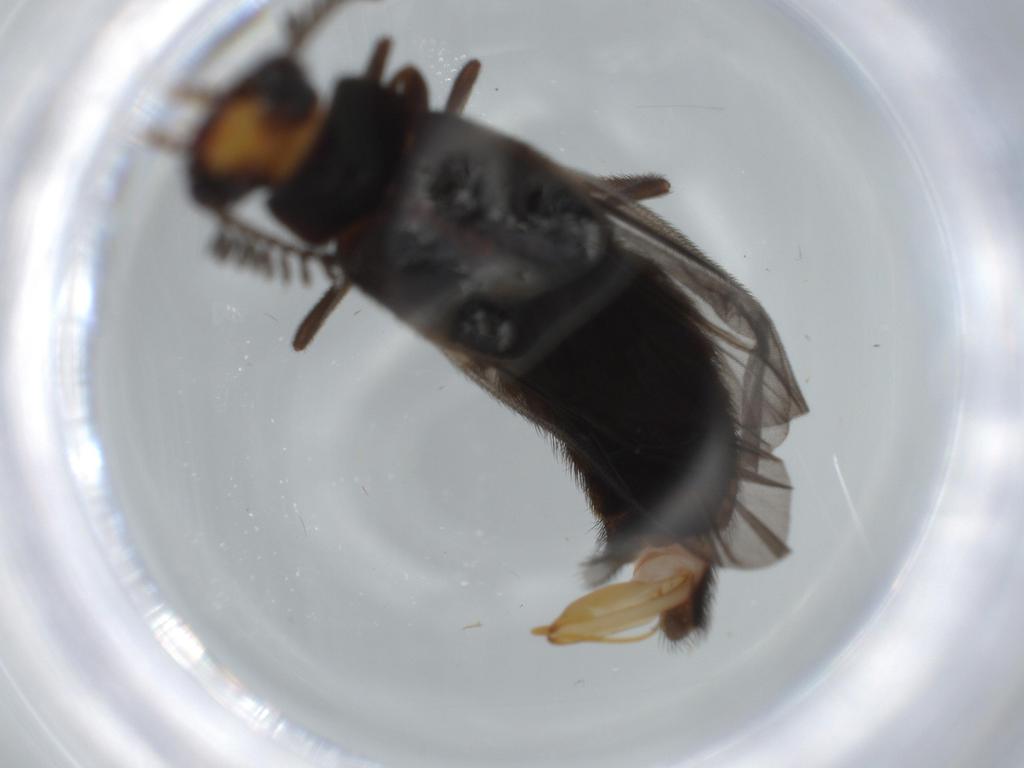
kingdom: Animalia
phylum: Arthropoda
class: Insecta
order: Coleoptera
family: Phengodidae
